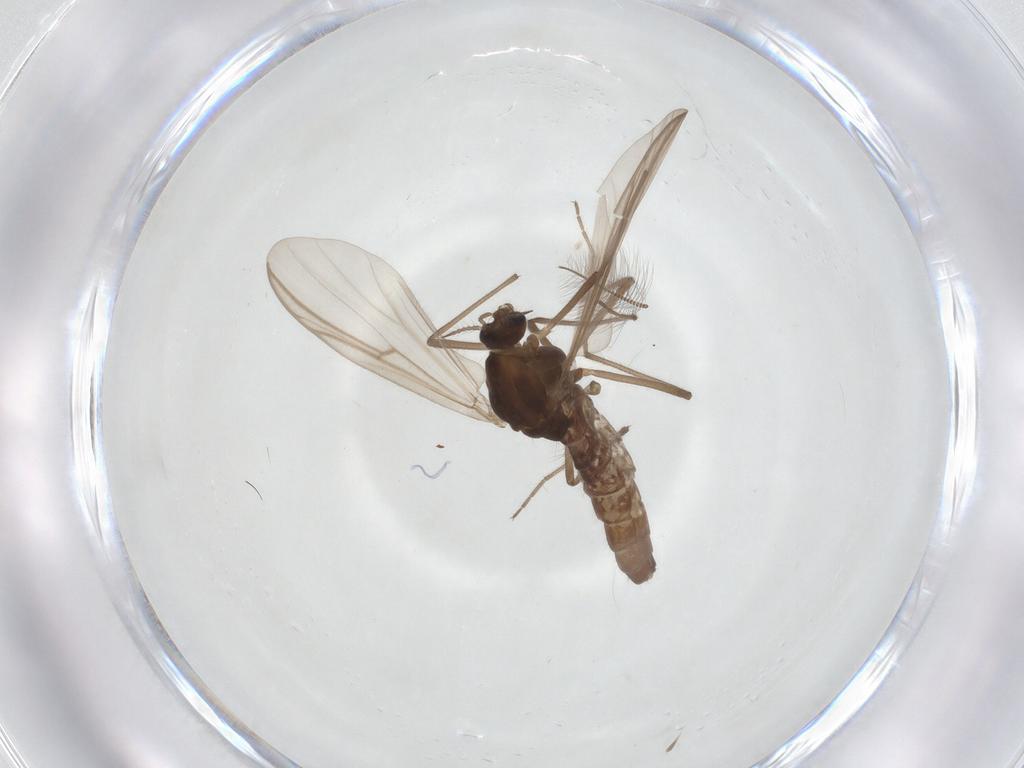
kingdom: Animalia
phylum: Arthropoda
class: Insecta
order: Diptera
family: Chironomidae
